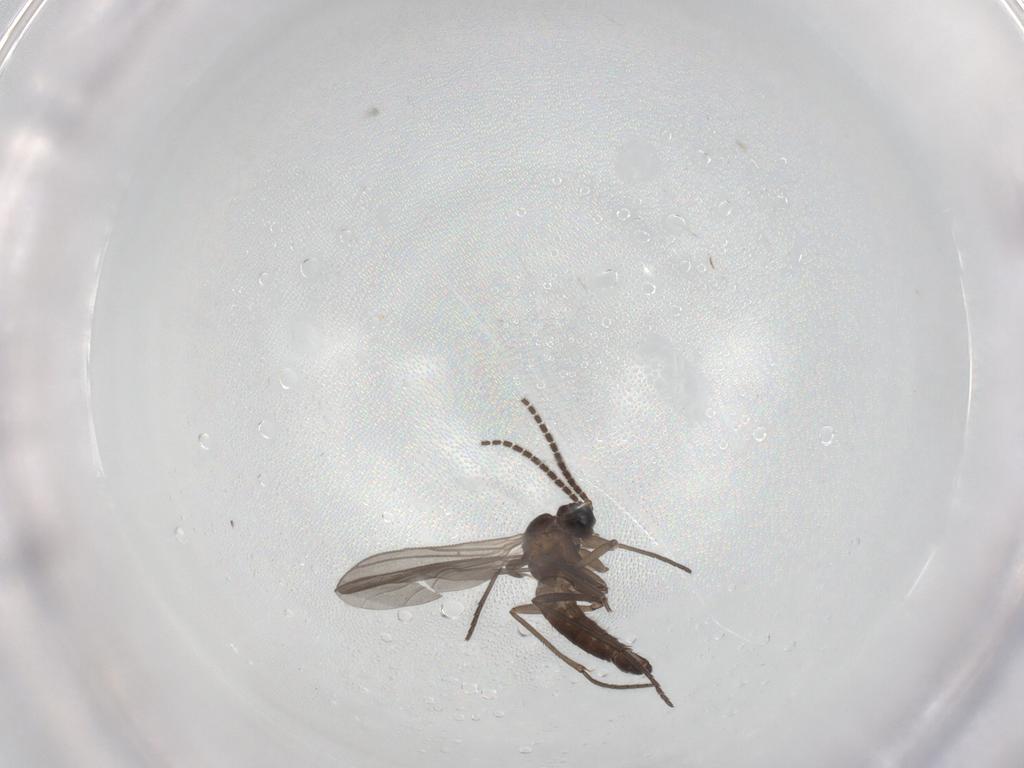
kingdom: Animalia
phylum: Arthropoda
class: Insecta
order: Diptera
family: Sciaridae
